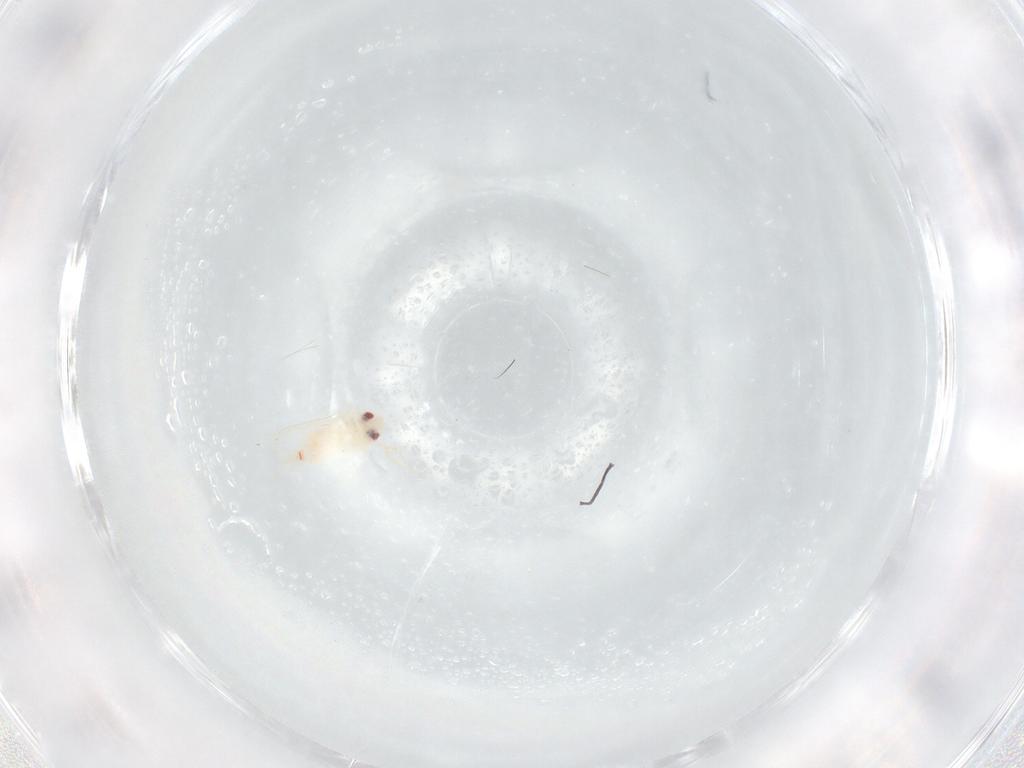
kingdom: Animalia
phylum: Arthropoda
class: Insecta
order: Hemiptera
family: Aleyrodidae
